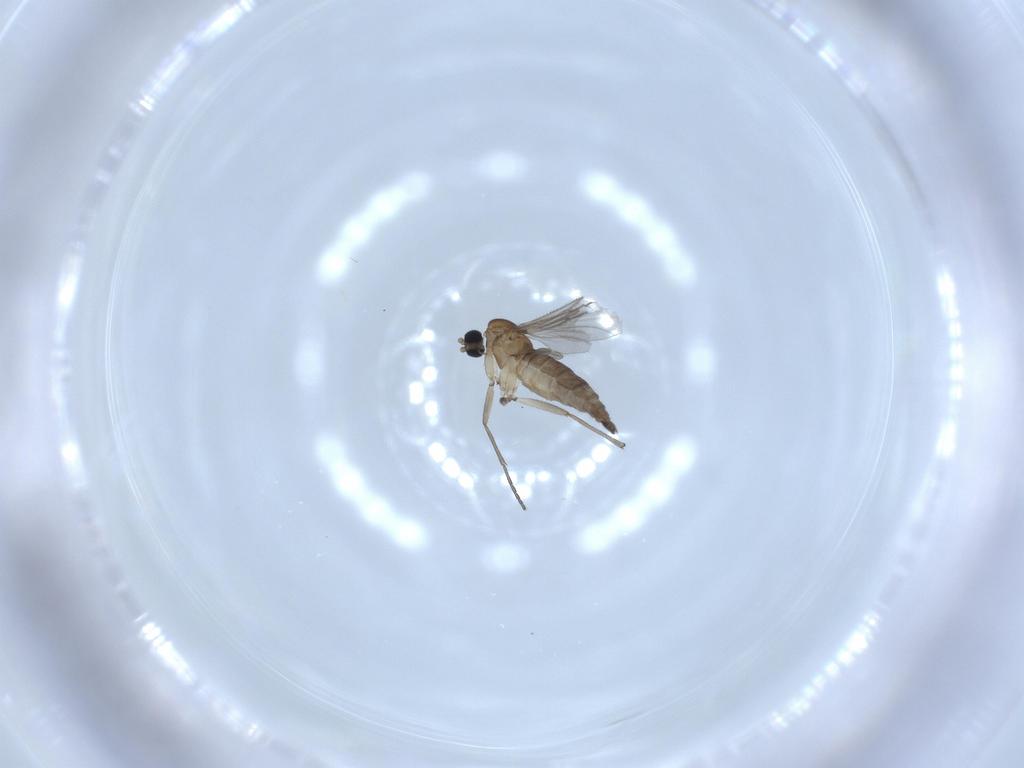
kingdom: Animalia
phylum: Arthropoda
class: Insecta
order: Diptera
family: Sciaridae
